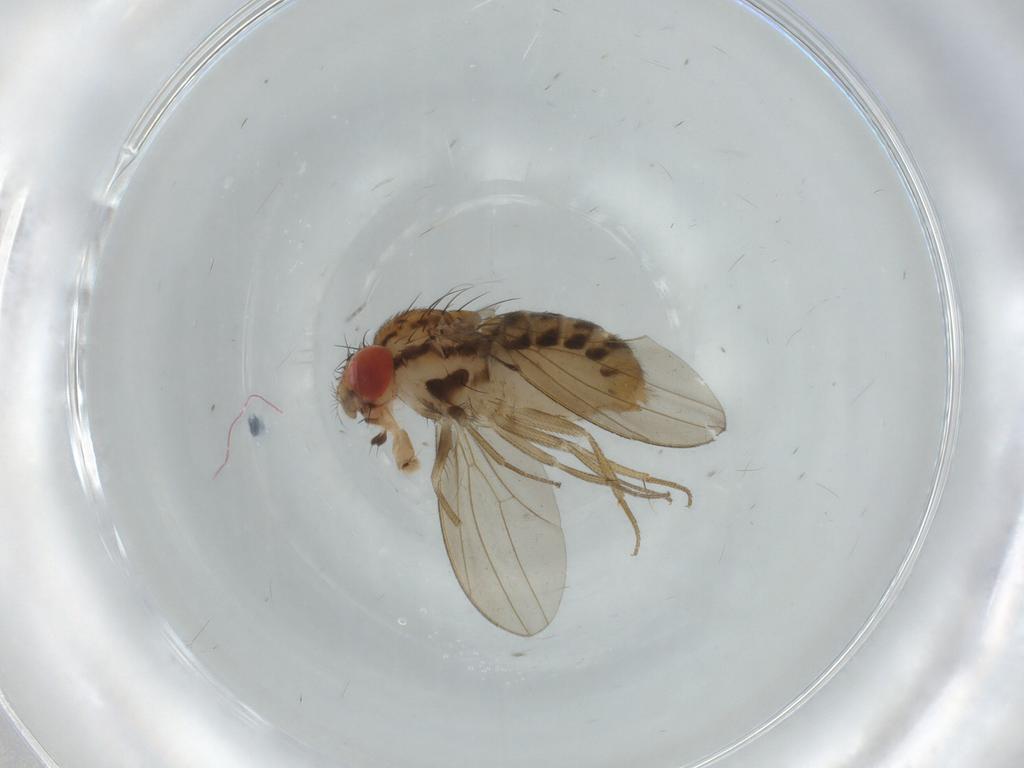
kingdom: Animalia
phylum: Arthropoda
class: Insecta
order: Diptera
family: Drosophilidae
